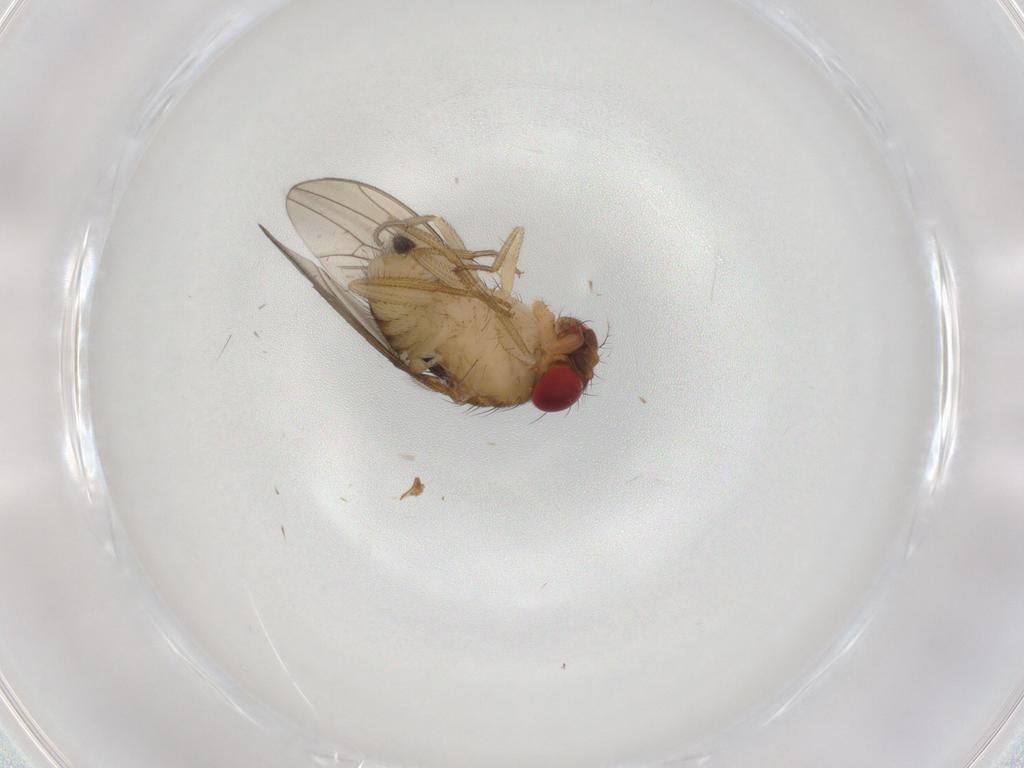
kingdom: Animalia
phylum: Arthropoda
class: Insecta
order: Diptera
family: Drosophilidae
